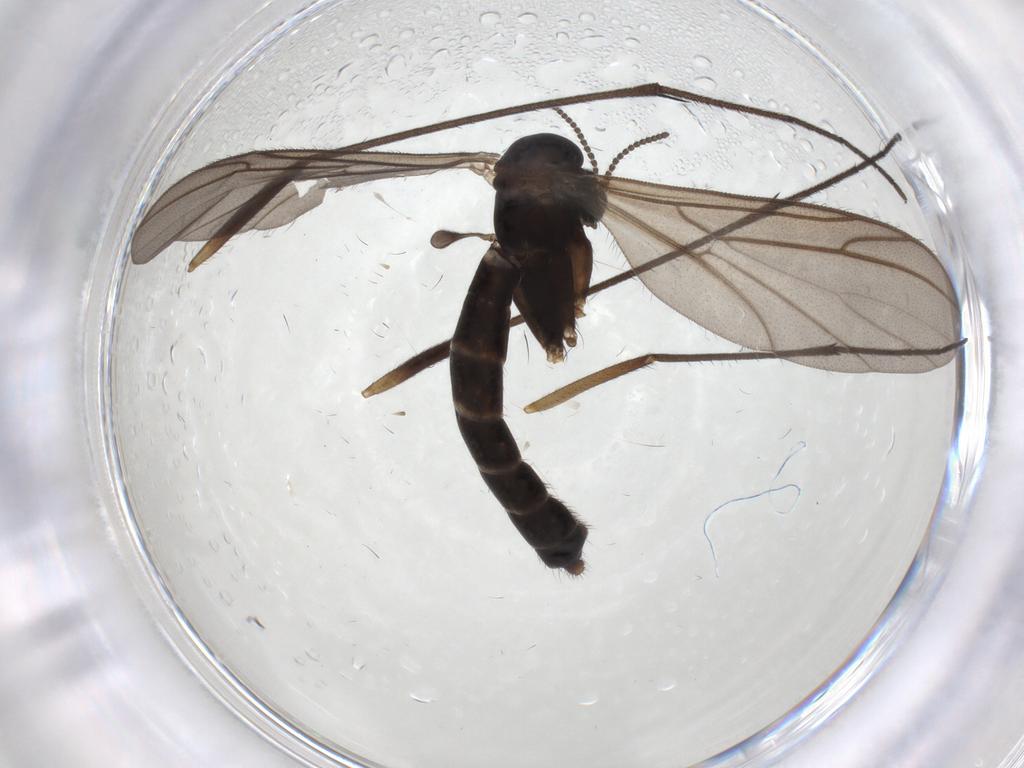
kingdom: Animalia
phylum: Arthropoda
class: Insecta
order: Diptera
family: Ditomyiidae
